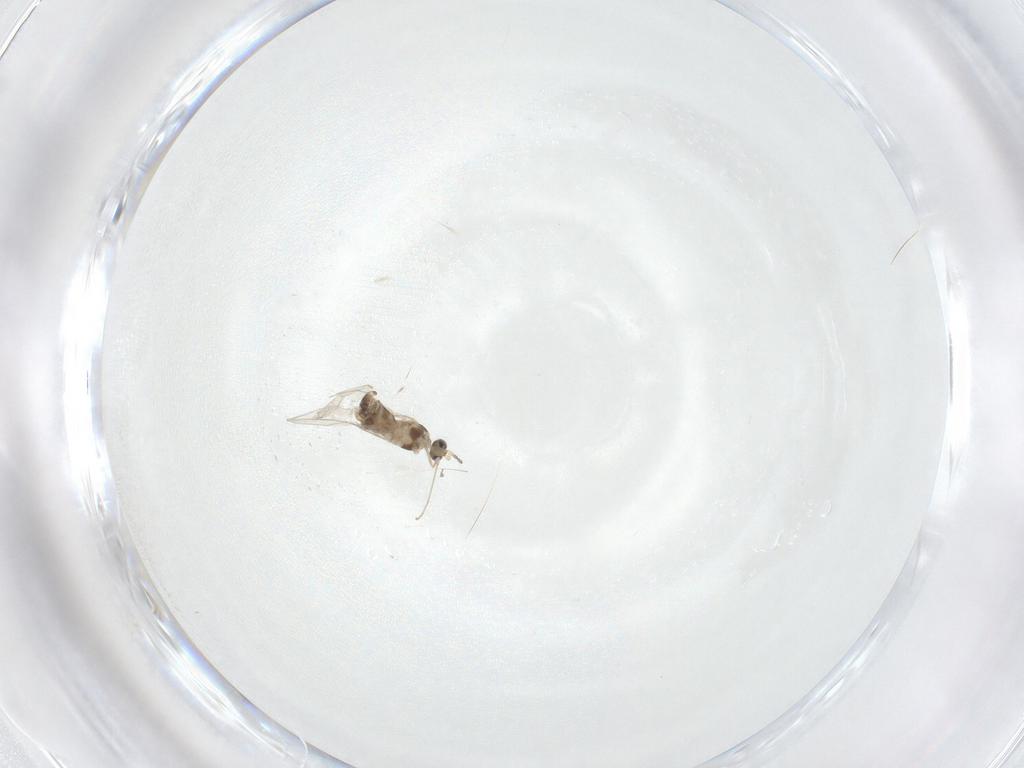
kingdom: Animalia
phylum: Arthropoda
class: Insecta
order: Diptera
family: Cecidomyiidae
